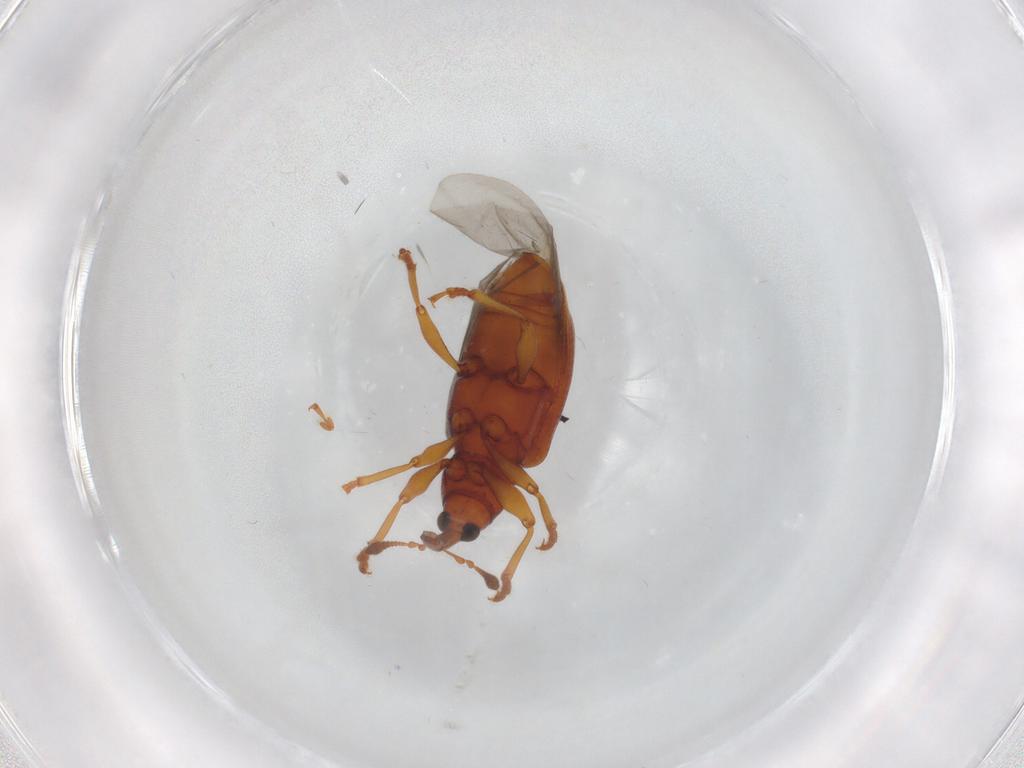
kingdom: Animalia
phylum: Arthropoda
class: Insecta
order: Coleoptera
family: Curculionidae
